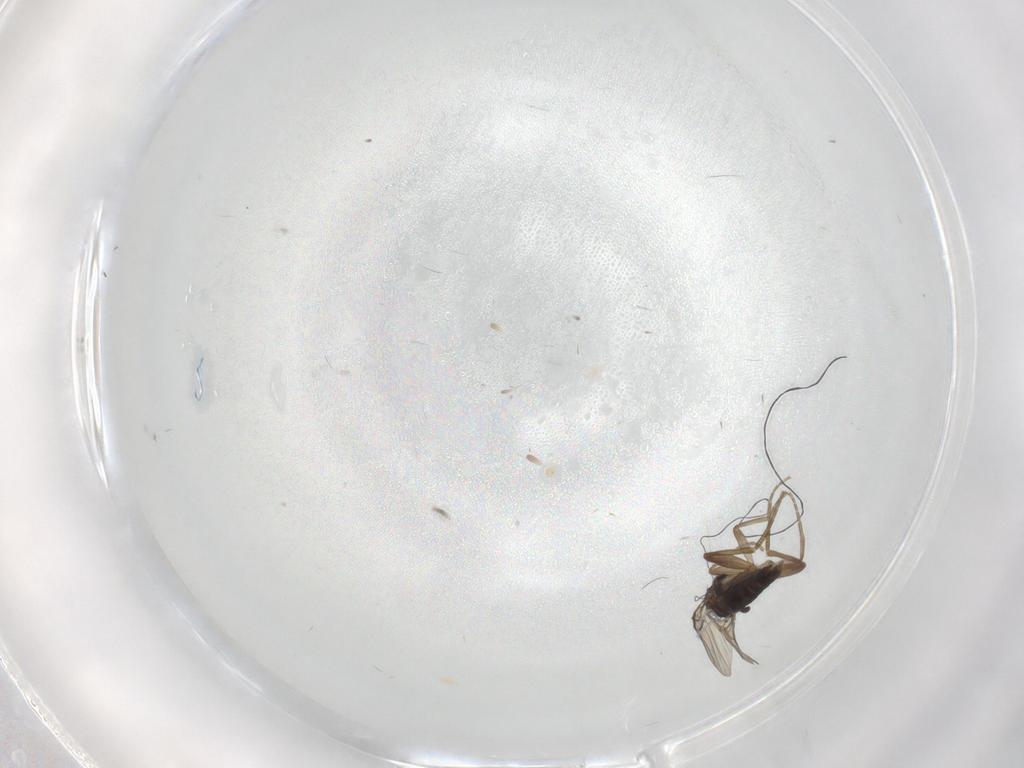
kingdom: Animalia
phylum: Arthropoda
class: Insecta
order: Diptera
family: Phoridae
